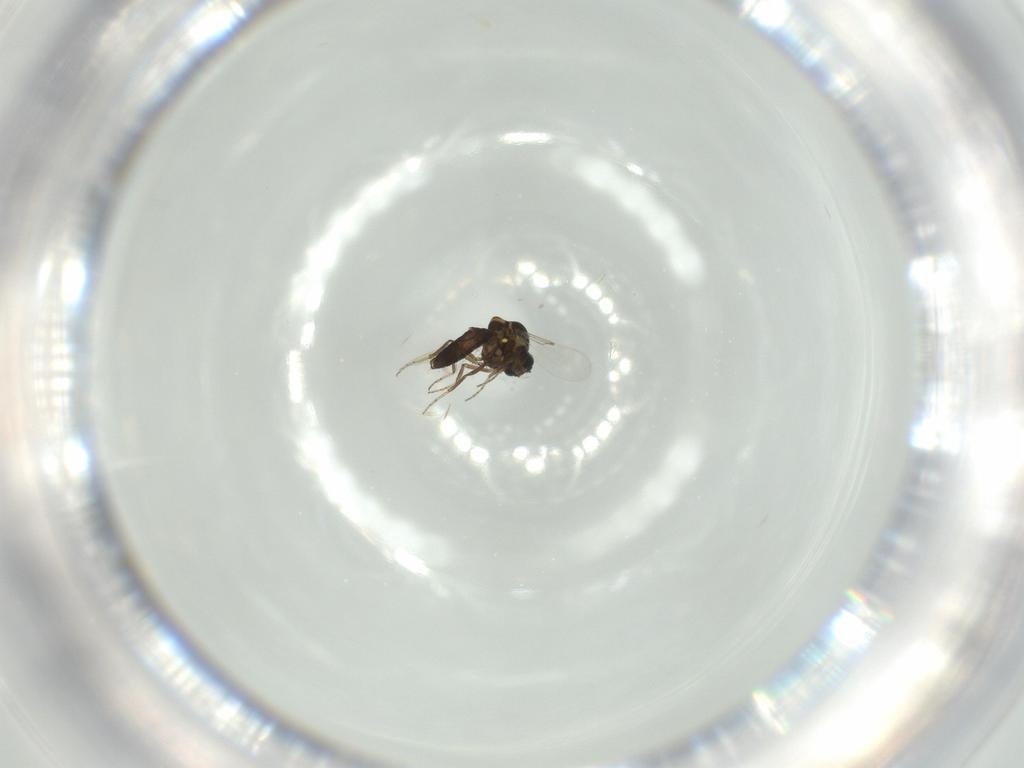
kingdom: Animalia
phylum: Arthropoda
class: Insecta
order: Diptera
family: Ceratopogonidae
